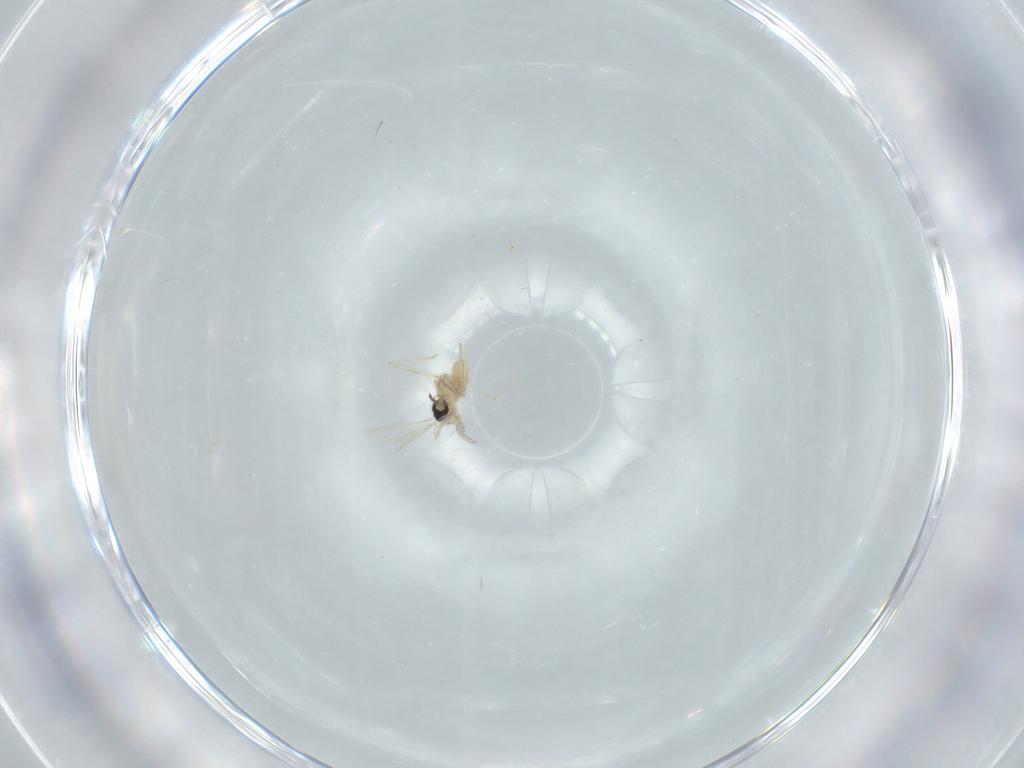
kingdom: Animalia
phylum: Arthropoda
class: Insecta
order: Diptera
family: Cecidomyiidae
